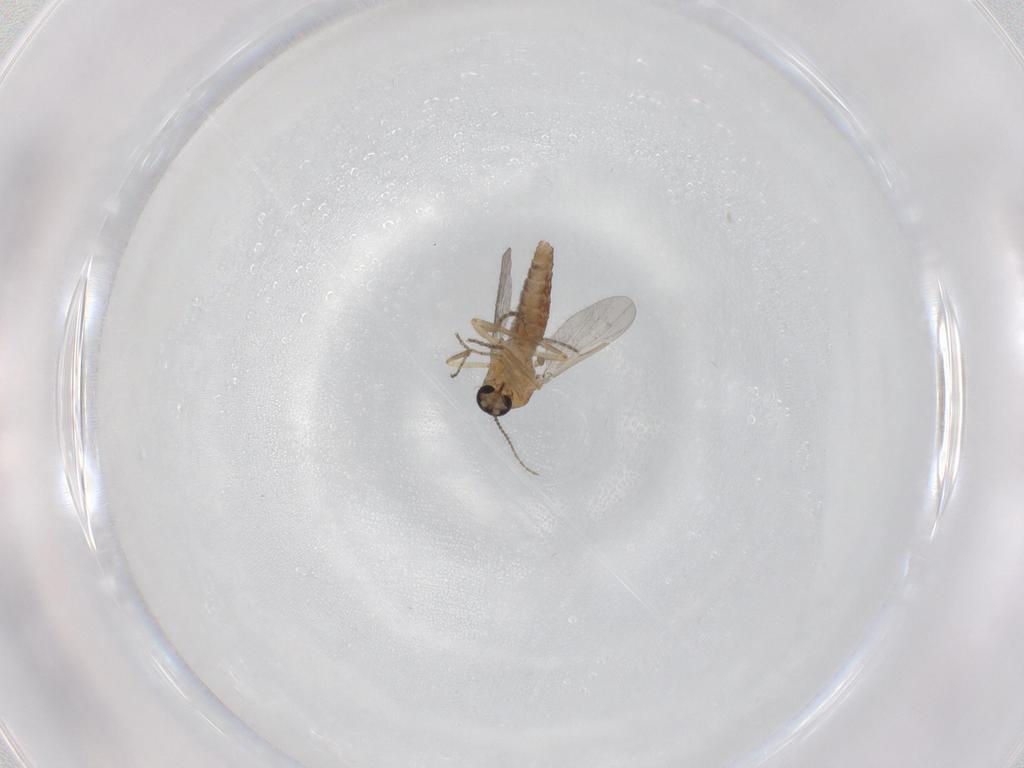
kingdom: Animalia
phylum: Arthropoda
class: Insecta
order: Diptera
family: Ceratopogonidae
